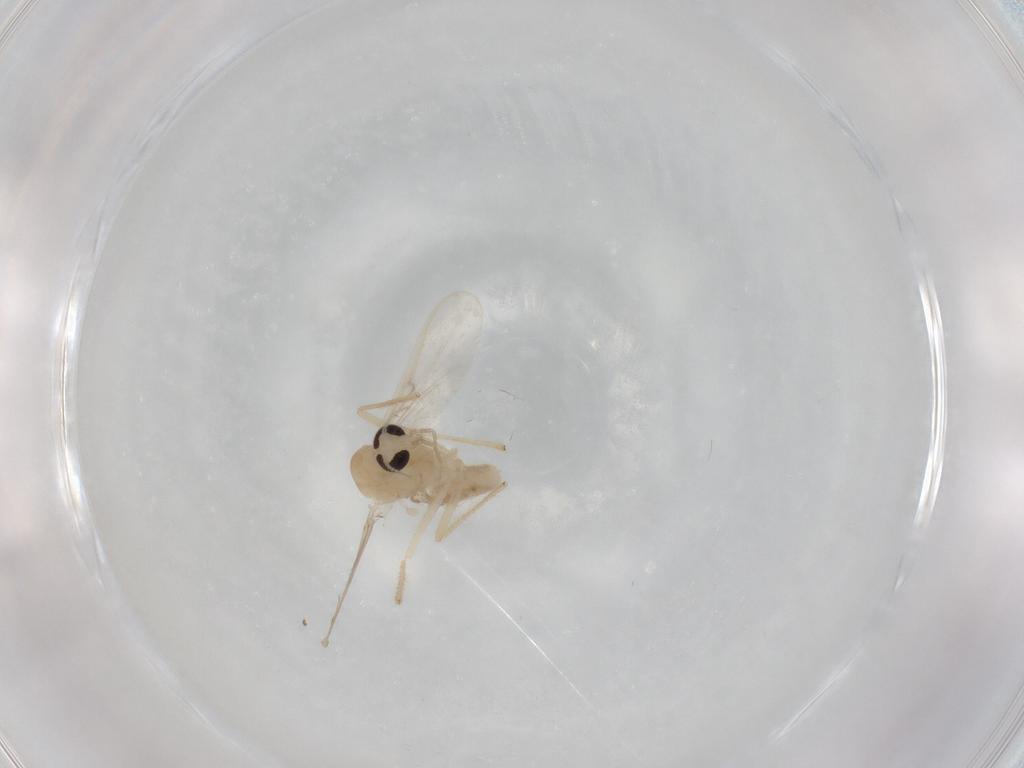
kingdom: Animalia
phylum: Arthropoda
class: Insecta
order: Diptera
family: Chironomidae
